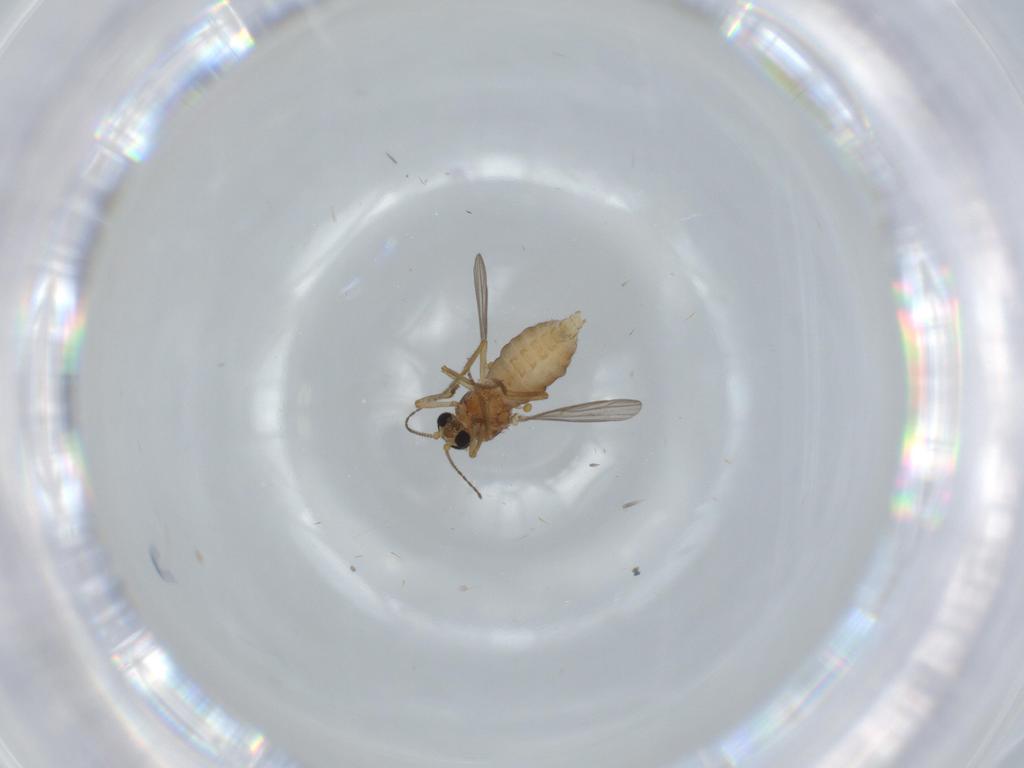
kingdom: Animalia
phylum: Arthropoda
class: Insecta
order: Diptera
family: Ceratopogonidae
